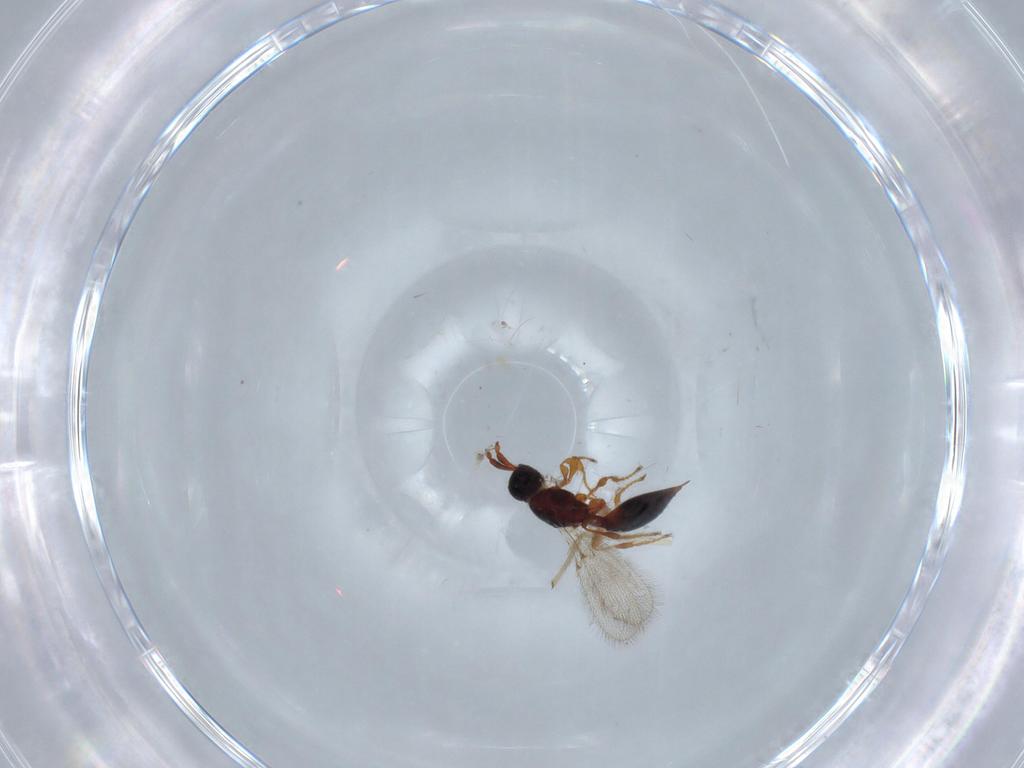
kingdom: Animalia
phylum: Arthropoda
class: Insecta
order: Hymenoptera
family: Diapriidae
